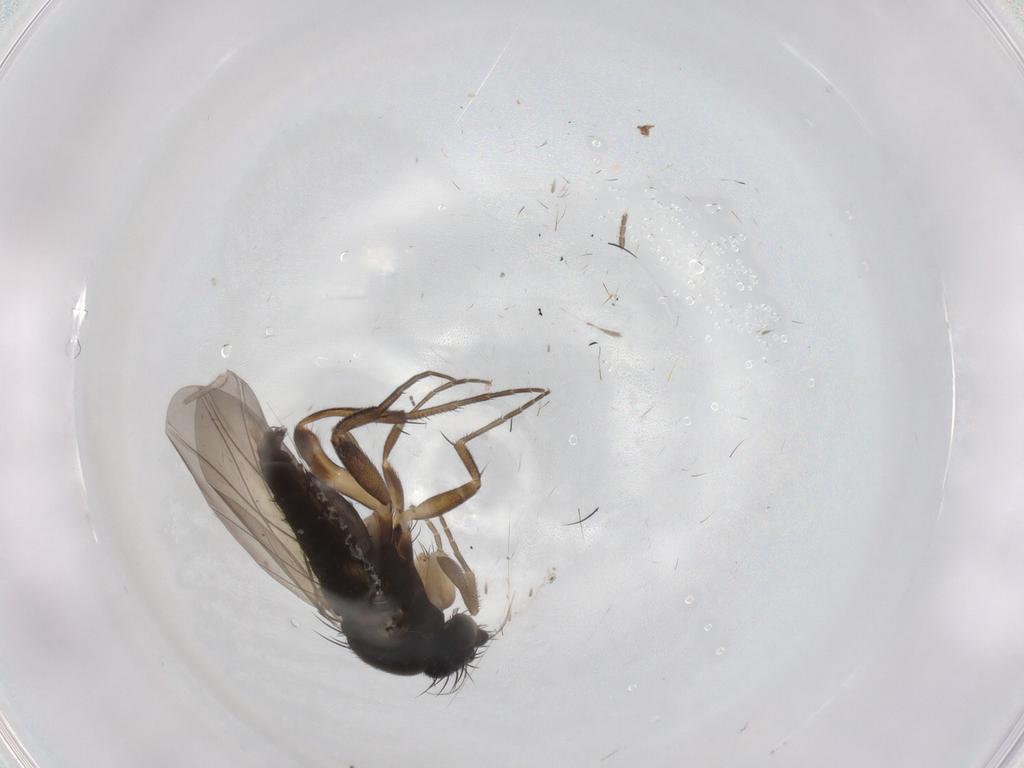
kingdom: Animalia
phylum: Arthropoda
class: Insecta
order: Diptera
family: Phoridae
